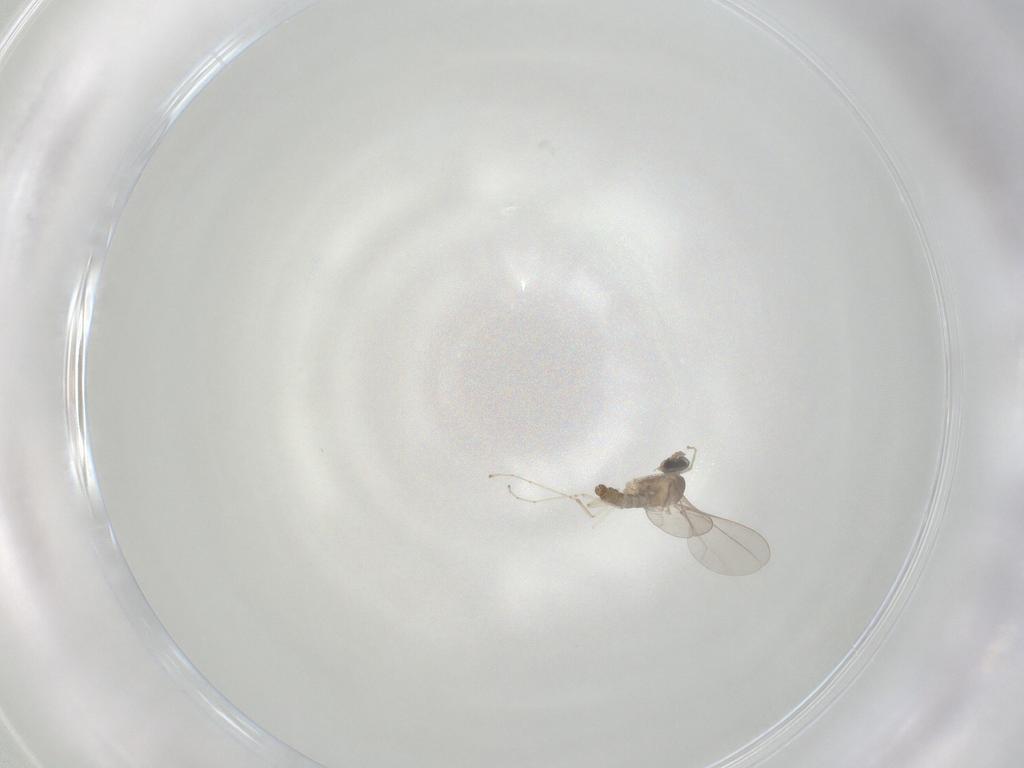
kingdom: Animalia
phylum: Arthropoda
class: Insecta
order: Diptera
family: Cecidomyiidae
